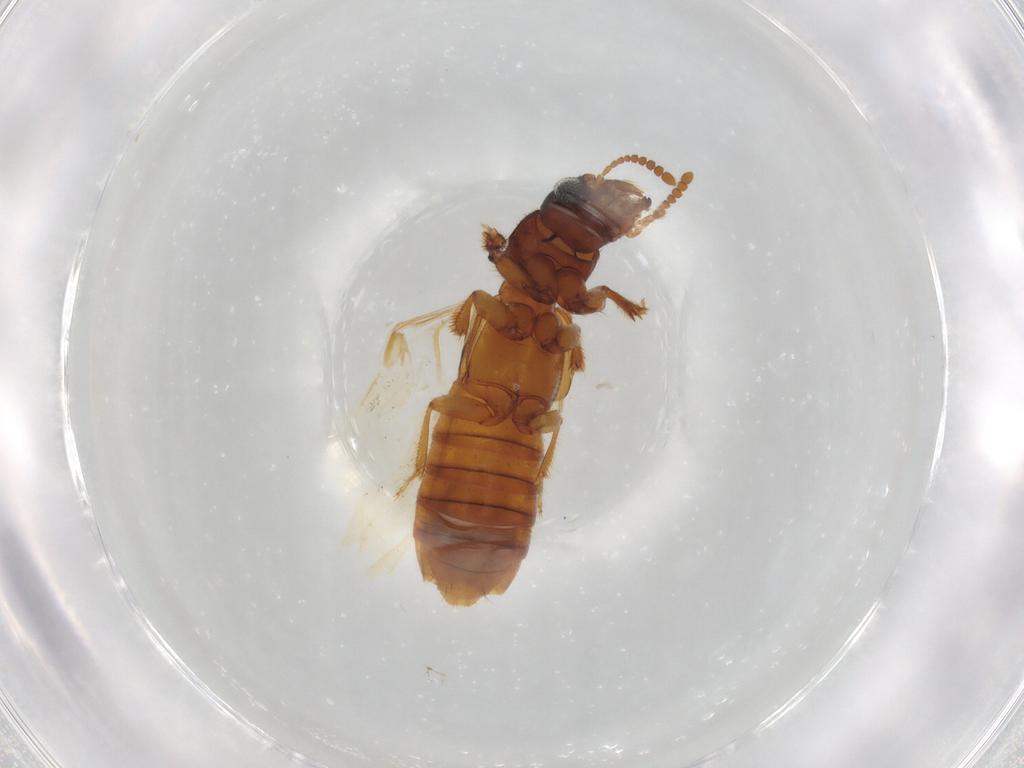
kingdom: Animalia
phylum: Arthropoda
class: Insecta
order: Coleoptera
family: Staphylinidae
